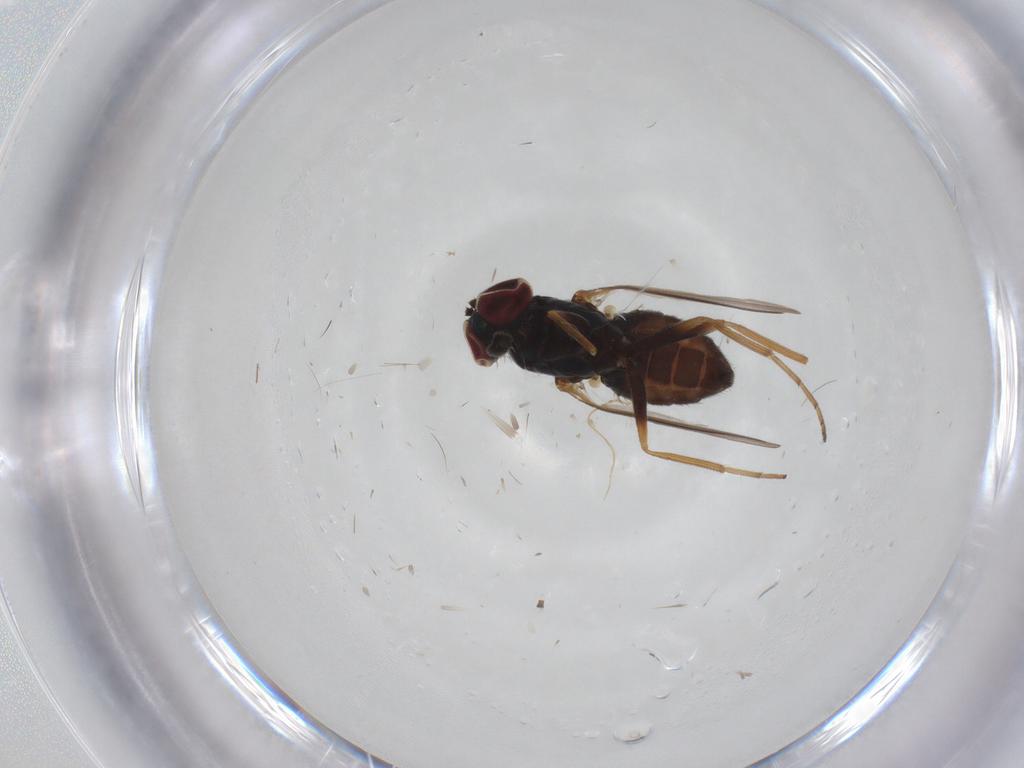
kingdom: Animalia
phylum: Arthropoda
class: Insecta
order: Diptera
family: Dolichopodidae
